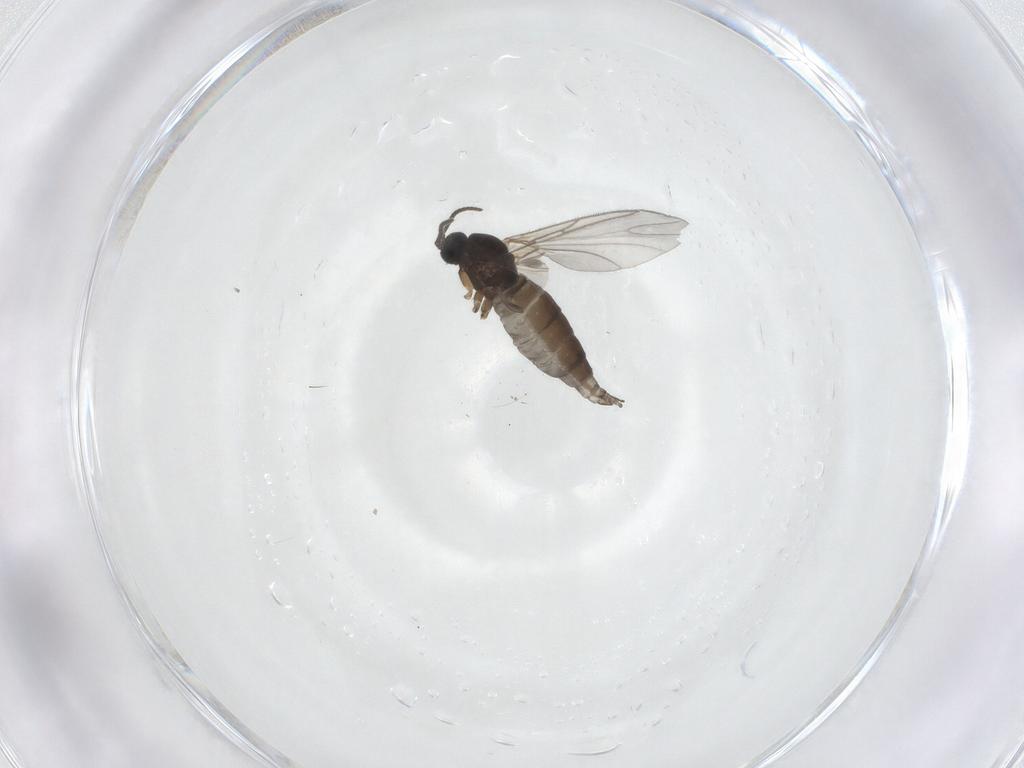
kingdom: Animalia
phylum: Arthropoda
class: Insecta
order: Diptera
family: Sciaridae
